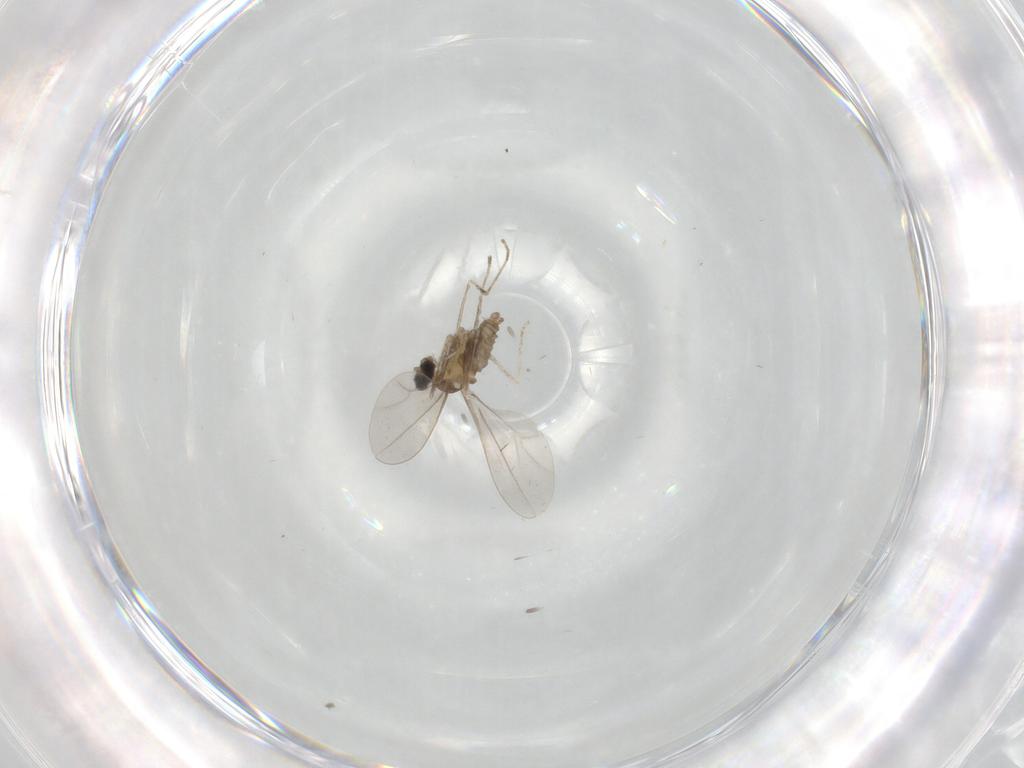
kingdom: Animalia
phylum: Arthropoda
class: Insecta
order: Diptera
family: Cecidomyiidae
